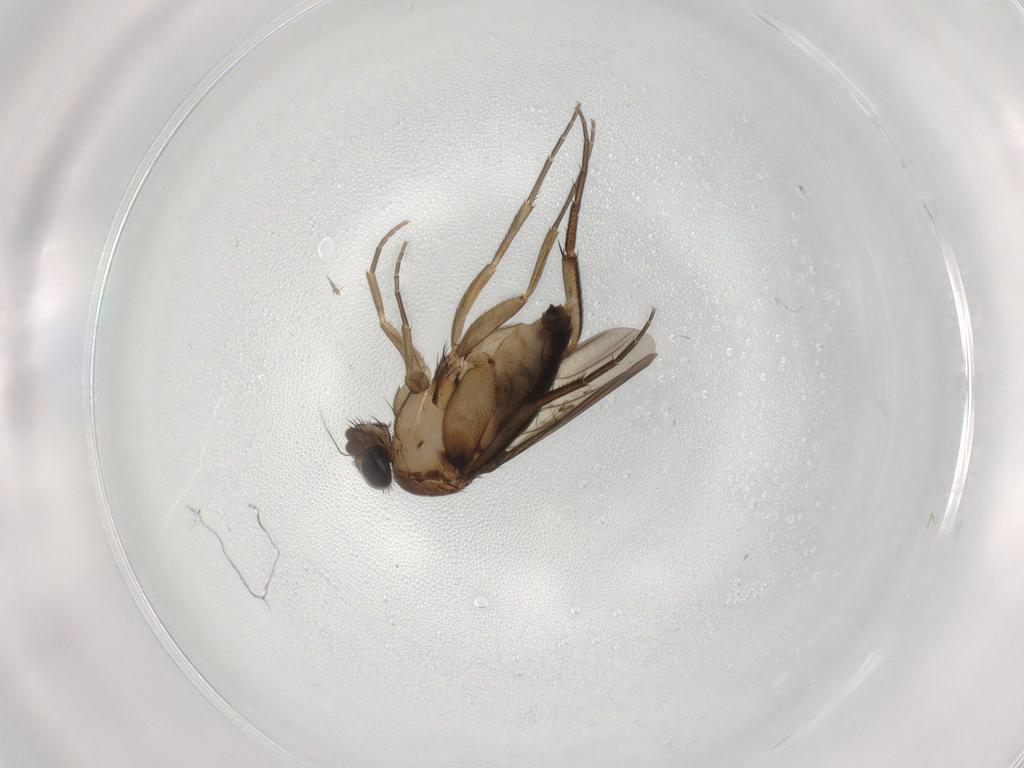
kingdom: Animalia
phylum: Arthropoda
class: Insecta
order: Diptera
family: Phoridae
